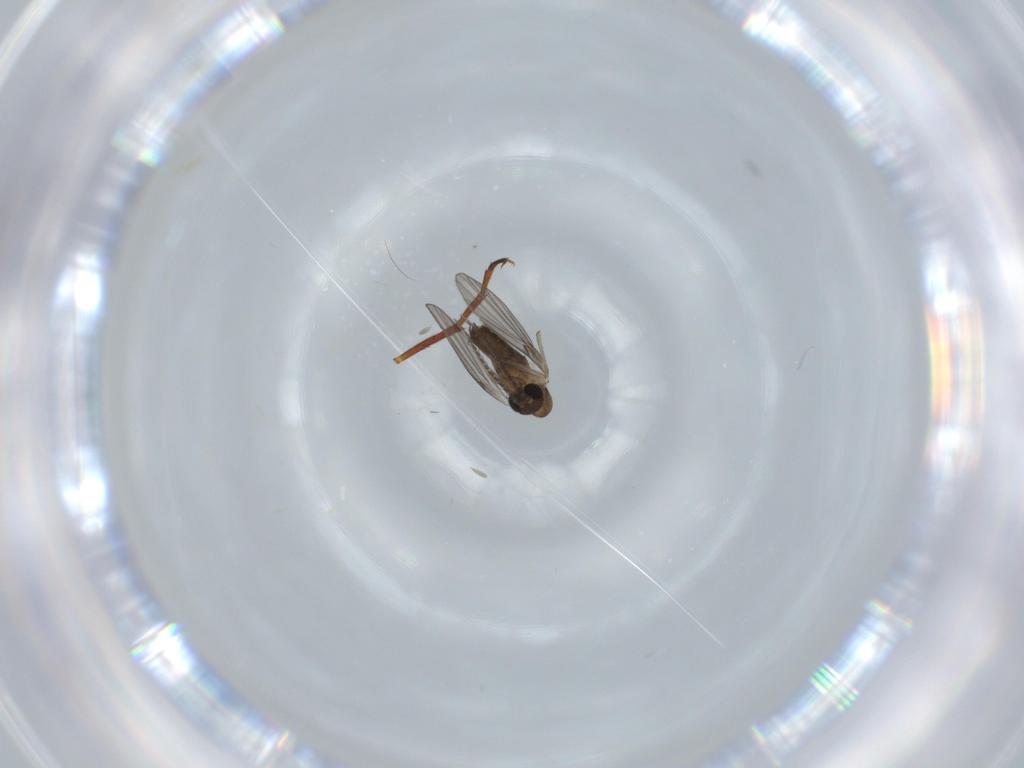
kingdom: Animalia
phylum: Arthropoda
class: Insecta
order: Diptera
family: Psychodidae
